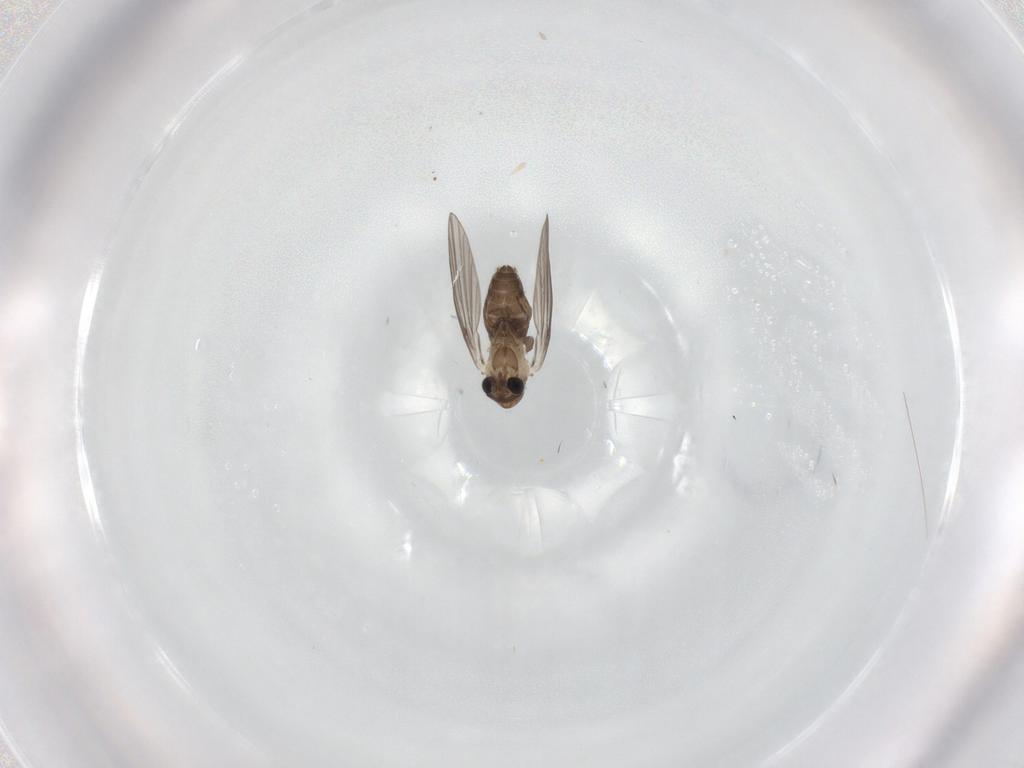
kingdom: Animalia
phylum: Arthropoda
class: Insecta
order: Diptera
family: Psychodidae
